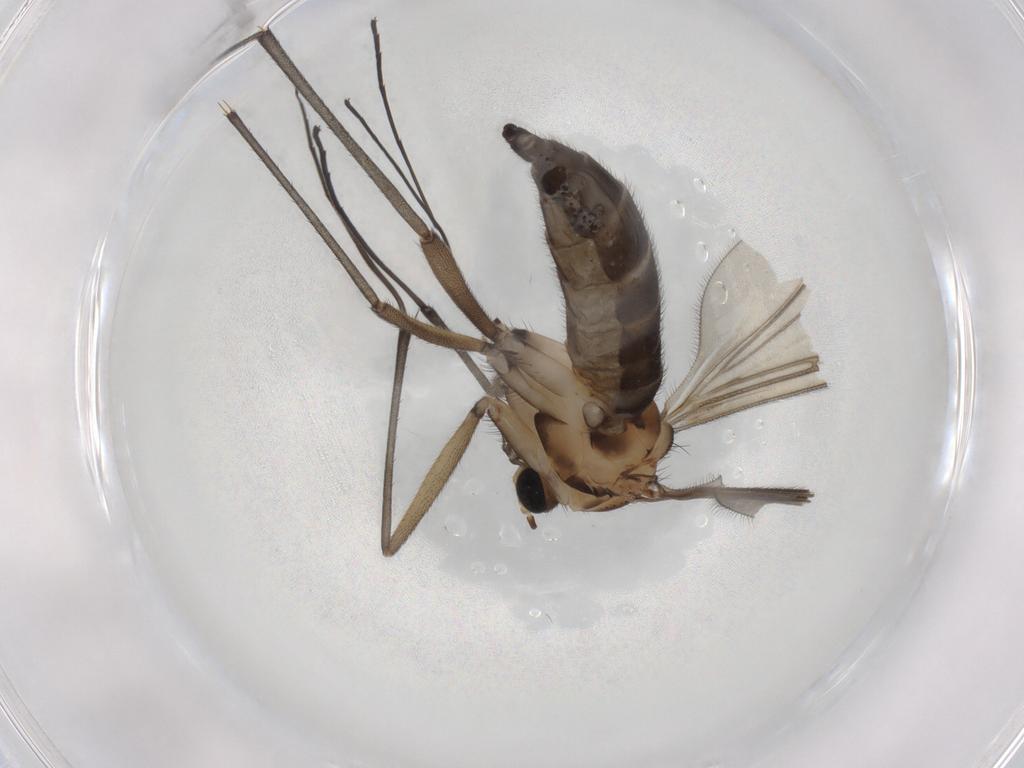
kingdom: Animalia
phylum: Arthropoda
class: Insecta
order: Diptera
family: Sciaridae
